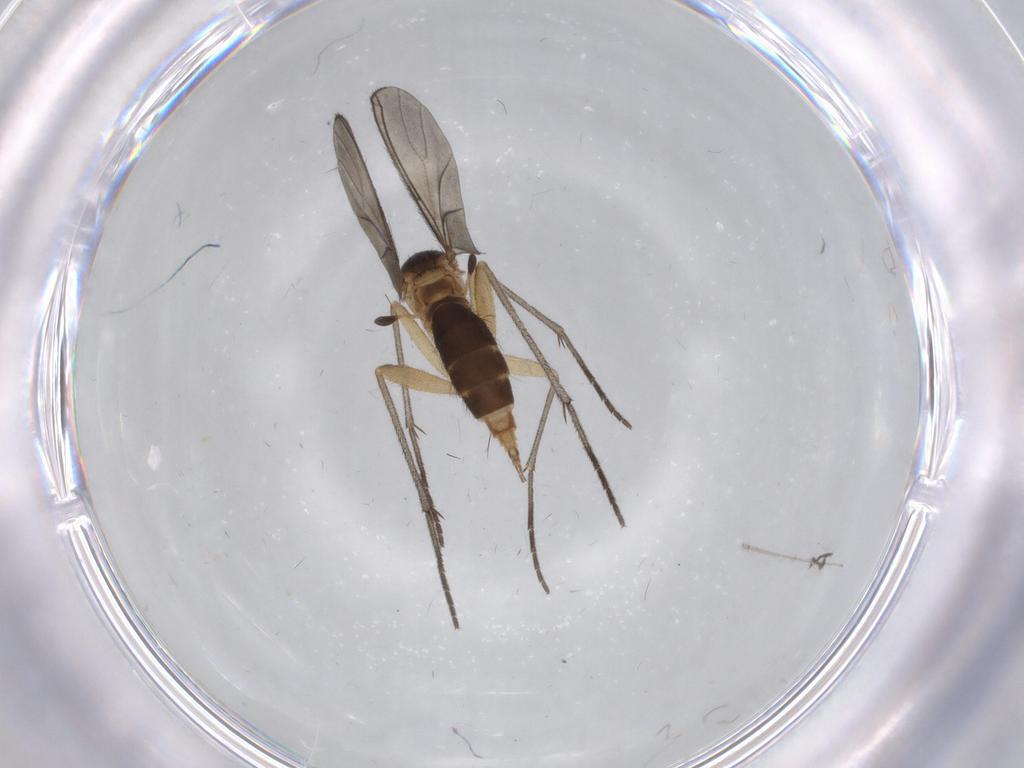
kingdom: Animalia
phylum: Arthropoda
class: Insecta
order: Diptera
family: Sciaridae
